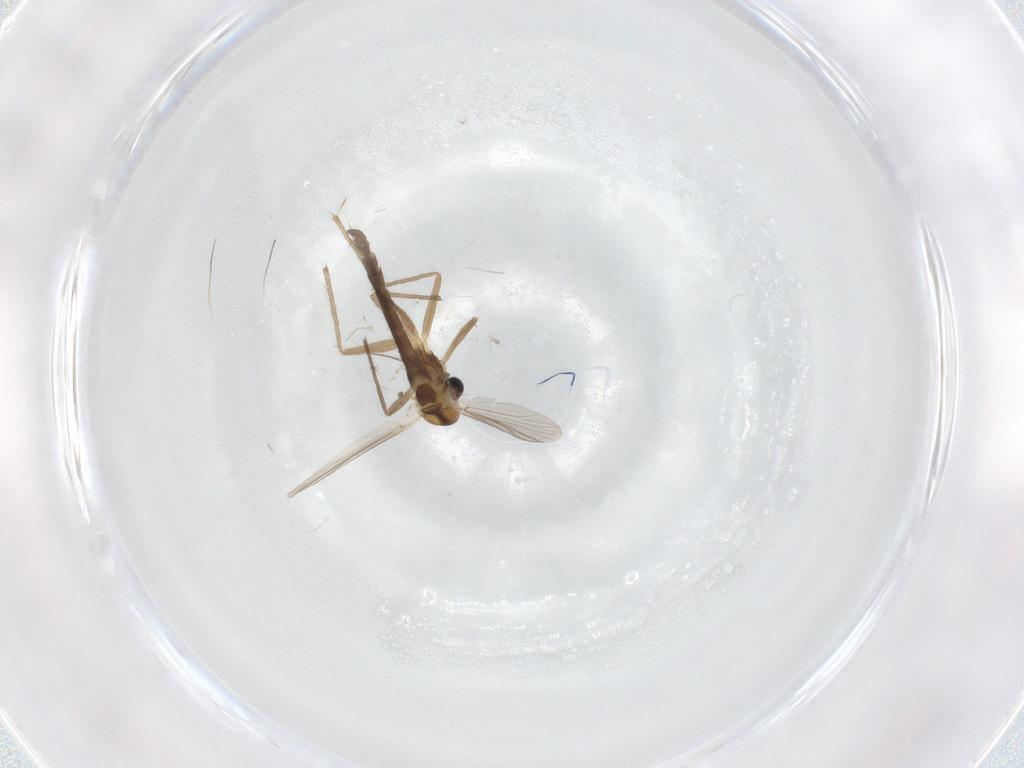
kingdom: Animalia
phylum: Arthropoda
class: Insecta
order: Diptera
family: Chironomidae
